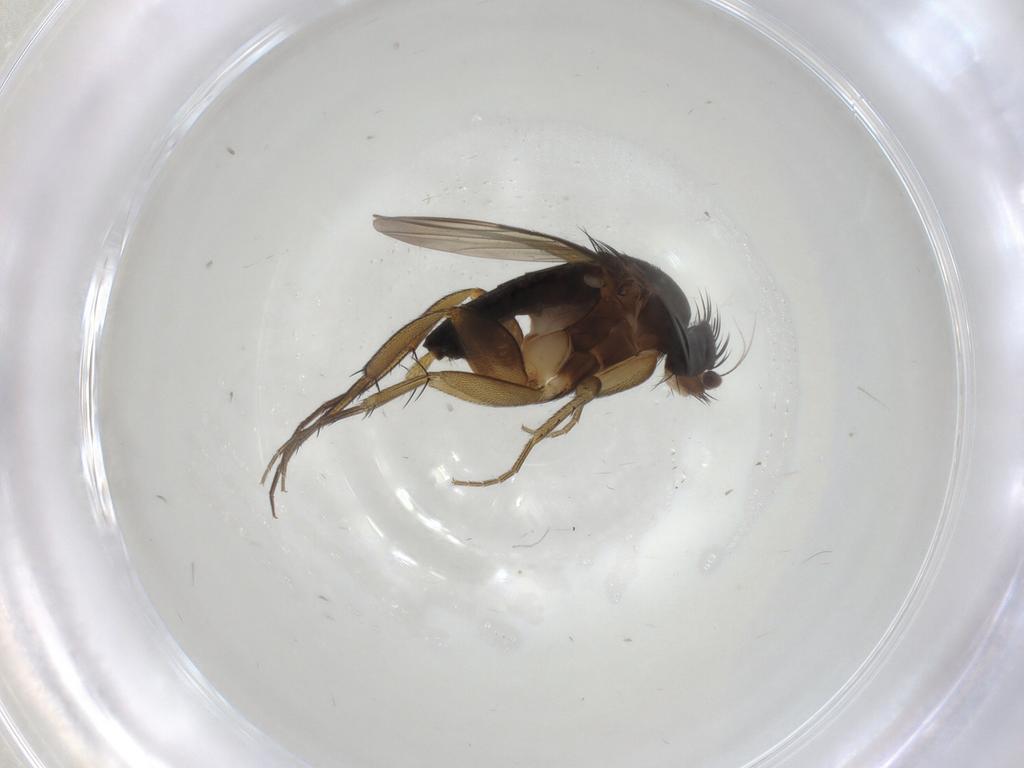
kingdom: Animalia
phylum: Arthropoda
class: Insecta
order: Diptera
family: Phoridae
